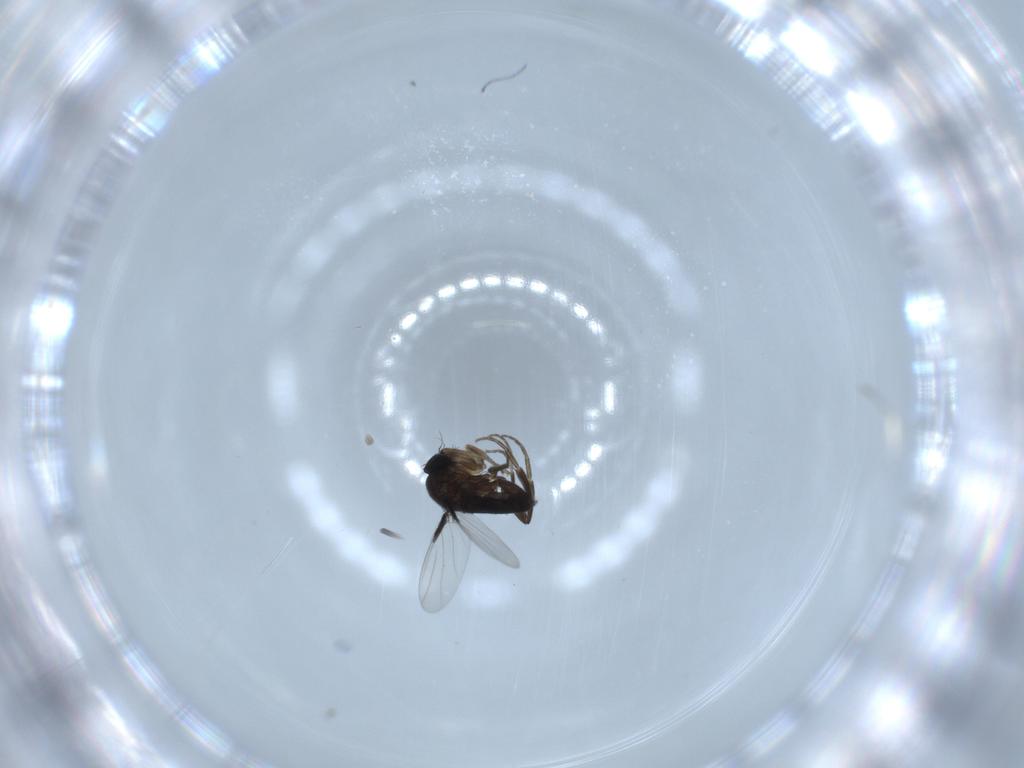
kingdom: Animalia
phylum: Arthropoda
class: Insecta
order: Diptera
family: Phoridae
